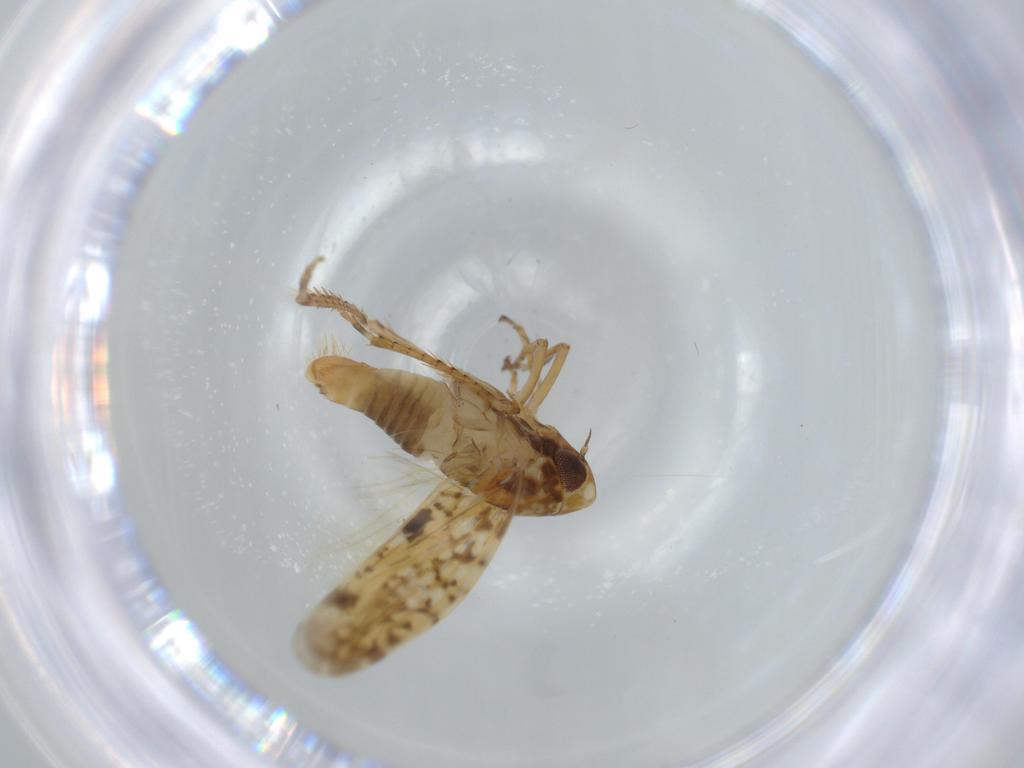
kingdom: Animalia
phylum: Arthropoda
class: Insecta
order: Hemiptera
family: Cicadellidae
